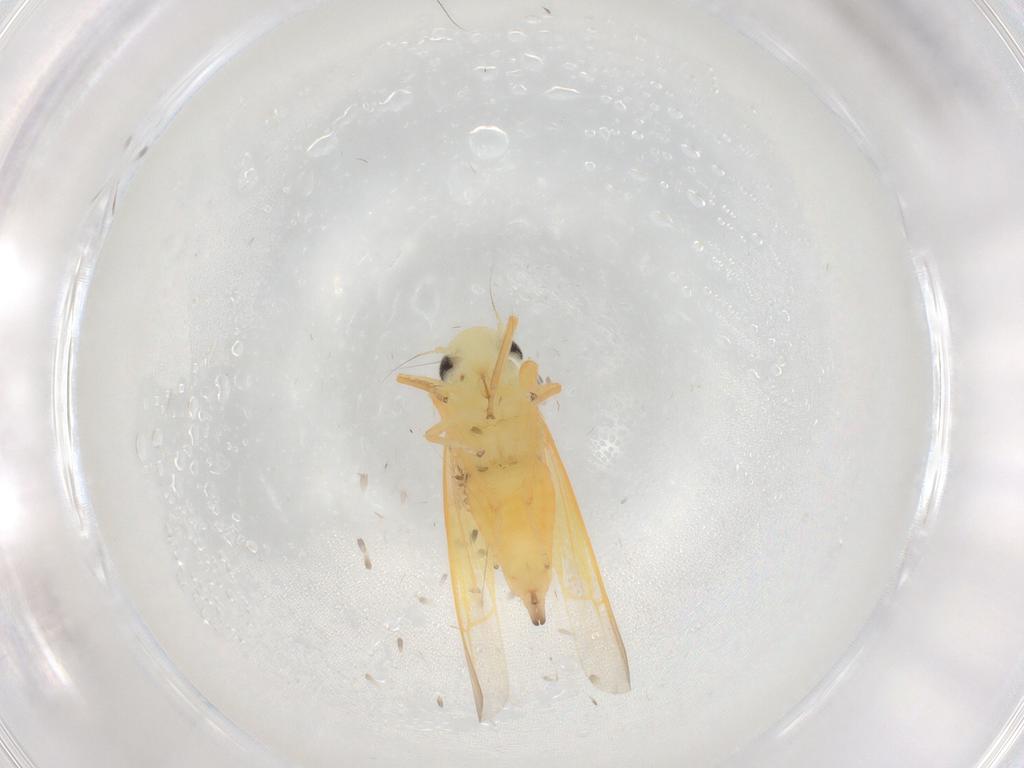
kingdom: Animalia
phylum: Arthropoda
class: Insecta
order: Hemiptera
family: Cicadellidae
